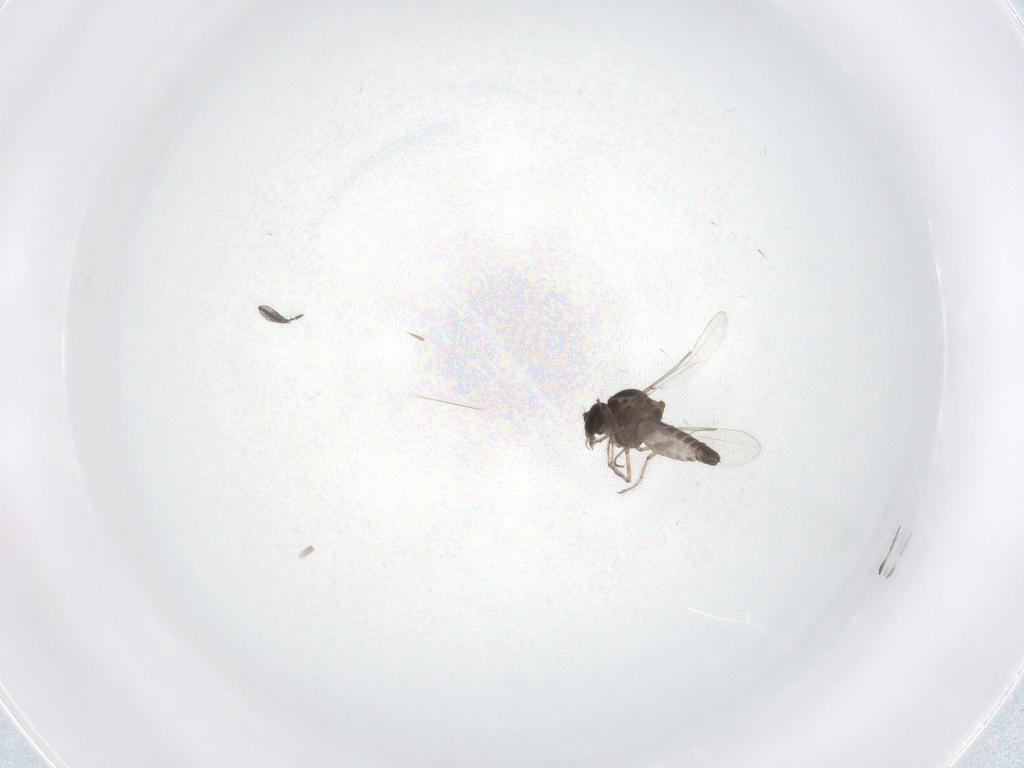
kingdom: Animalia
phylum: Arthropoda
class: Insecta
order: Diptera
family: Ceratopogonidae
